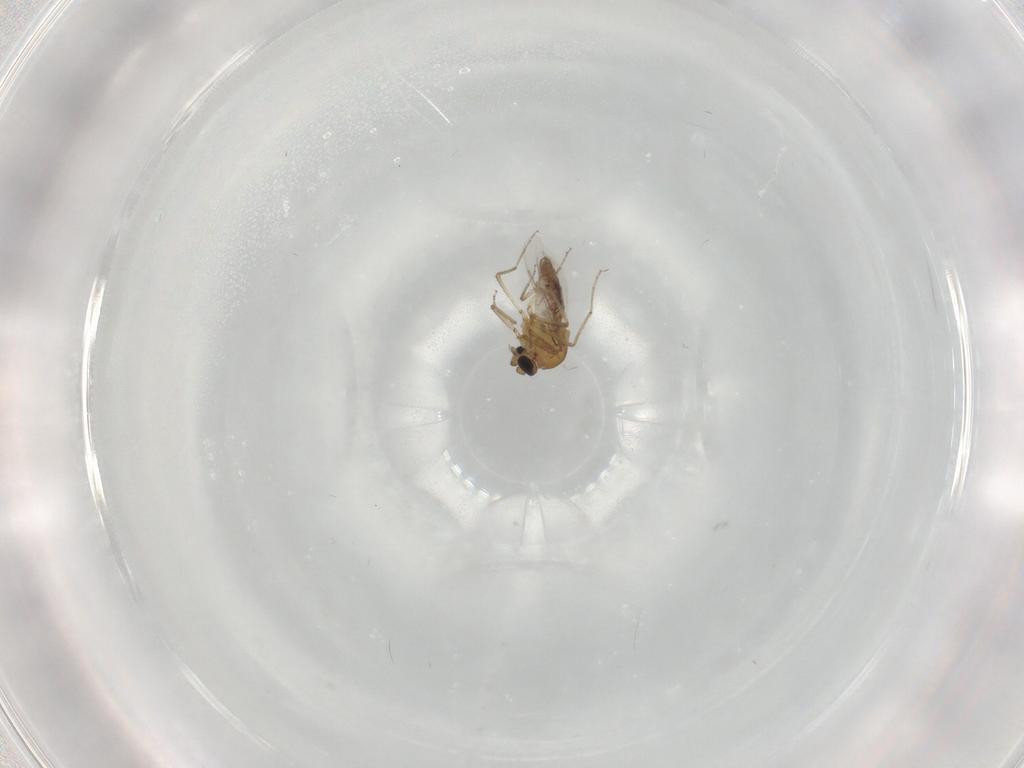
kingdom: Animalia
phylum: Arthropoda
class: Insecta
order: Diptera
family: Ceratopogonidae
